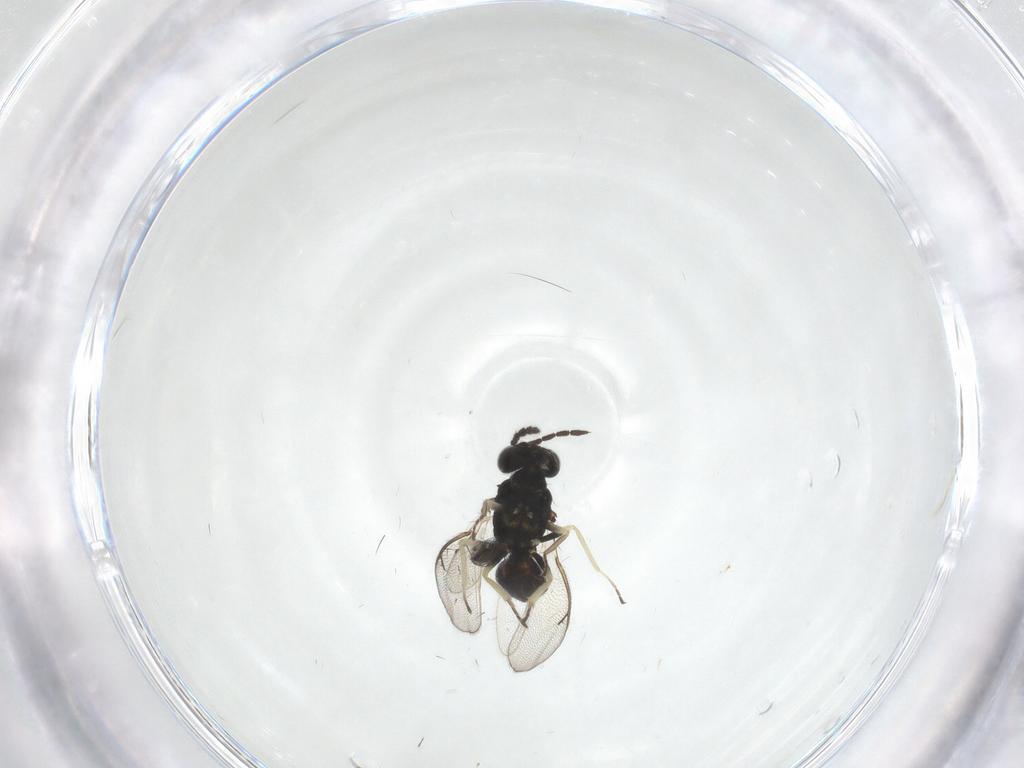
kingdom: Animalia
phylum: Arthropoda
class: Insecta
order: Hymenoptera
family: Eulophidae
